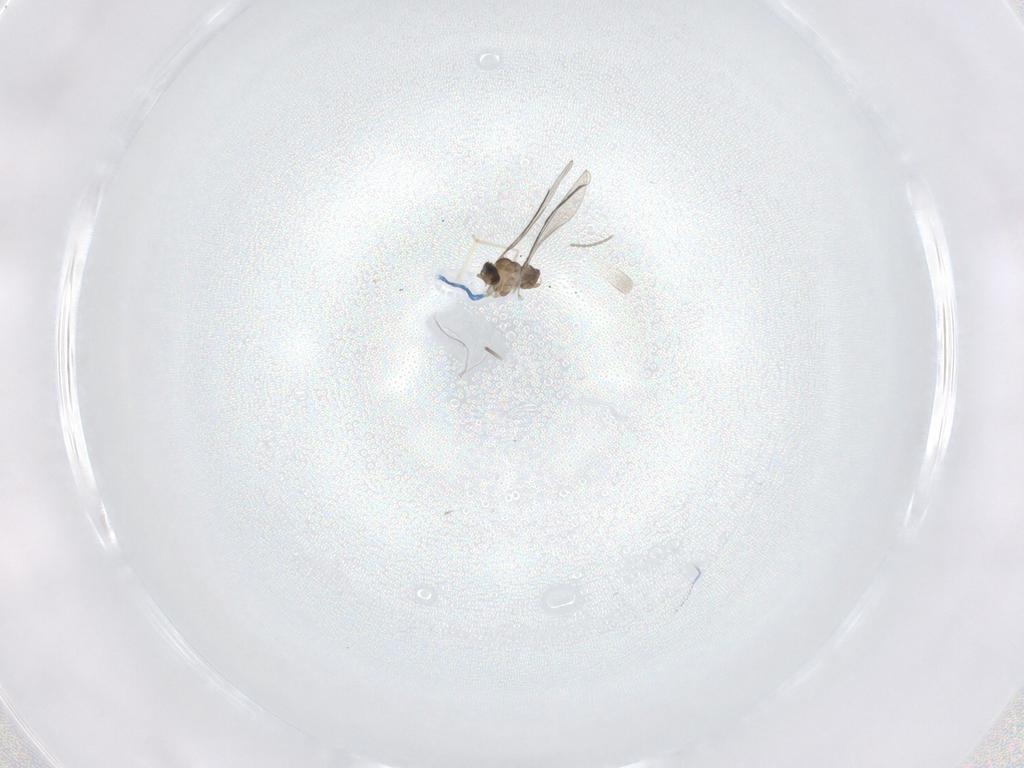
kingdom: Animalia
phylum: Arthropoda
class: Insecta
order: Diptera
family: Cecidomyiidae
